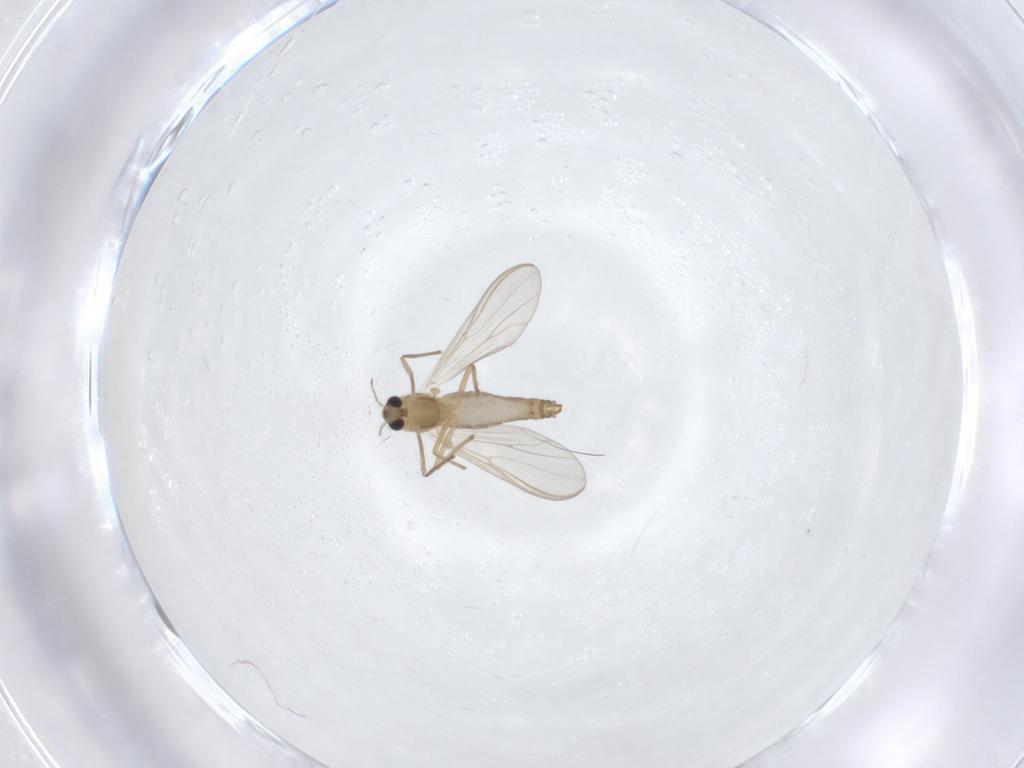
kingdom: Animalia
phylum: Arthropoda
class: Insecta
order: Diptera
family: Chironomidae
